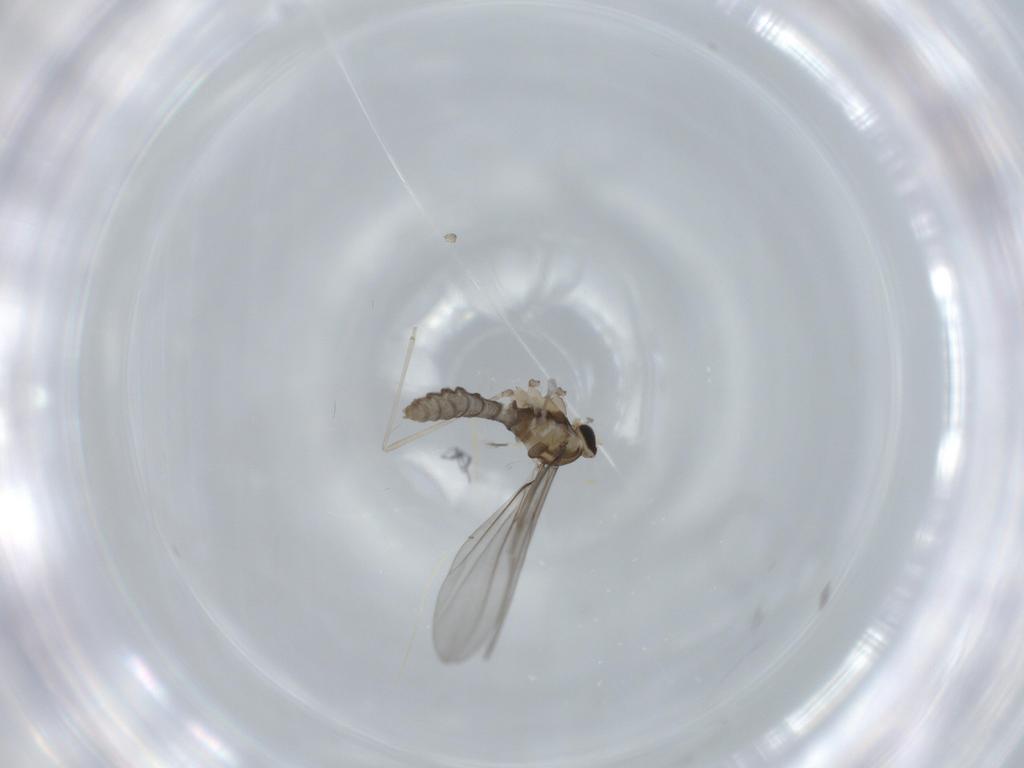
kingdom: Animalia
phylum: Arthropoda
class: Insecta
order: Diptera
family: Cecidomyiidae
